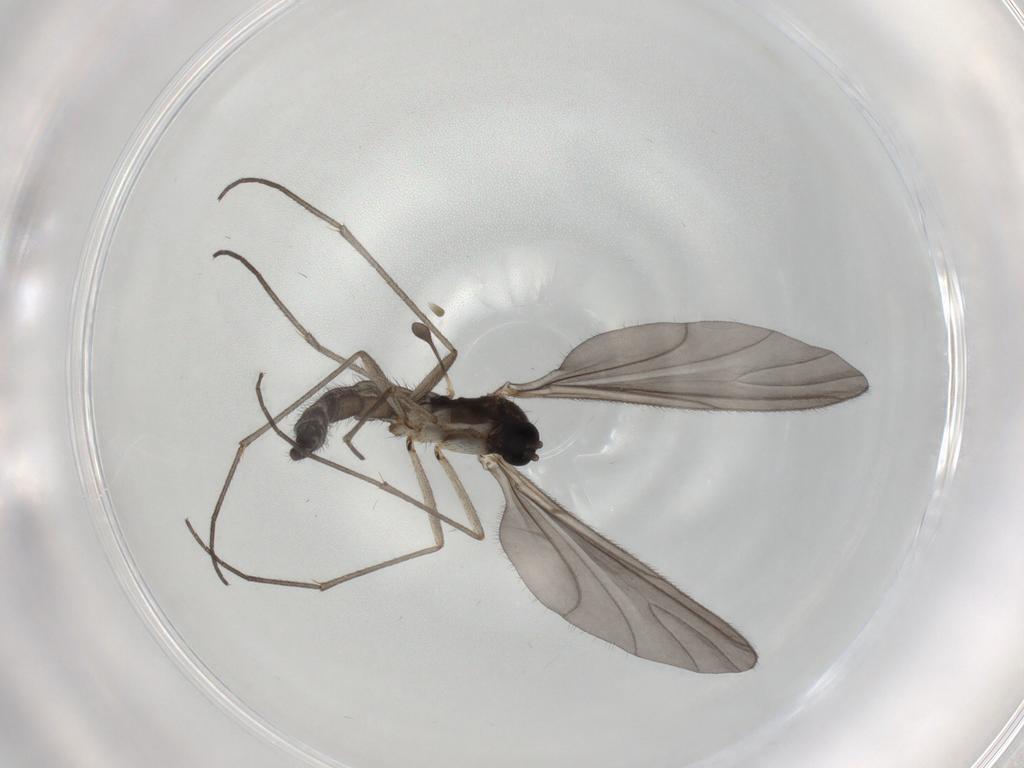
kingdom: Animalia
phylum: Arthropoda
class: Insecta
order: Diptera
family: Sciaridae
